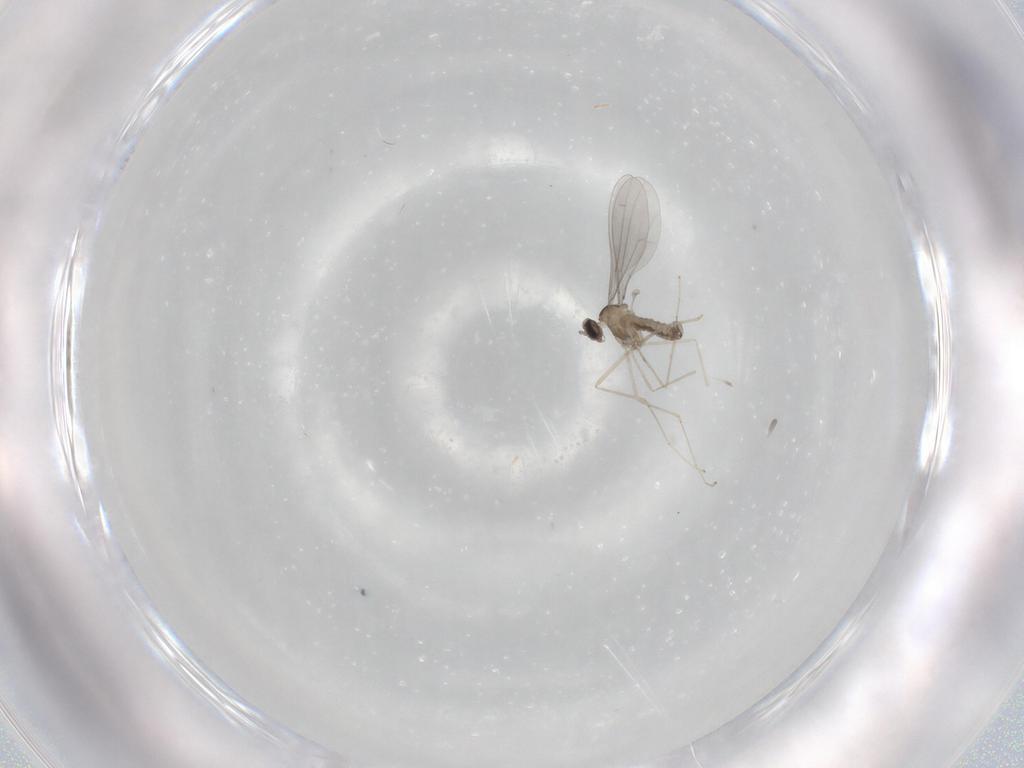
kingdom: Animalia
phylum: Arthropoda
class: Insecta
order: Diptera
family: Cecidomyiidae
